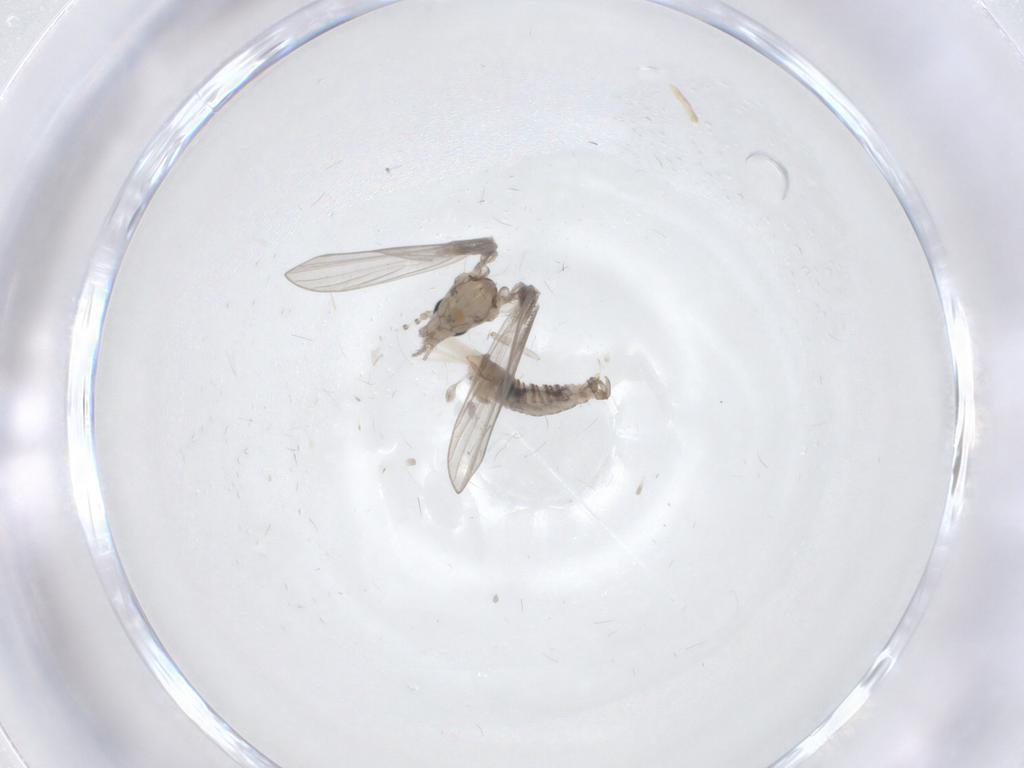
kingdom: Animalia
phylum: Arthropoda
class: Insecta
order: Diptera
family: Psychodidae
